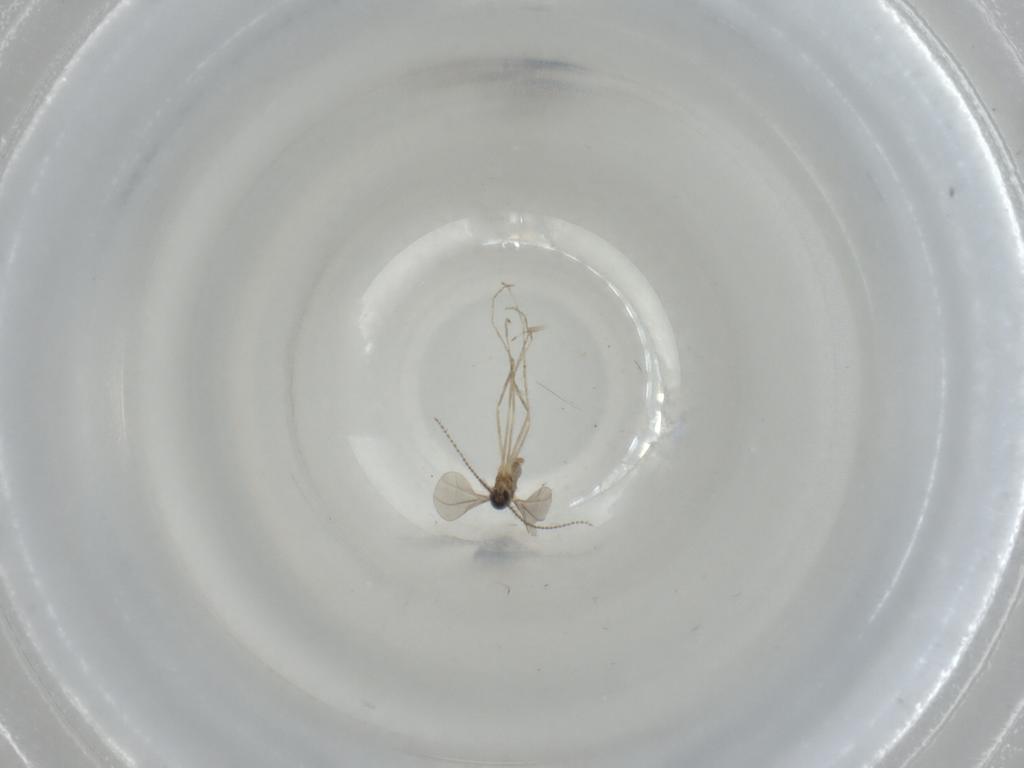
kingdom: Animalia
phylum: Arthropoda
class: Insecta
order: Diptera
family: Cecidomyiidae
